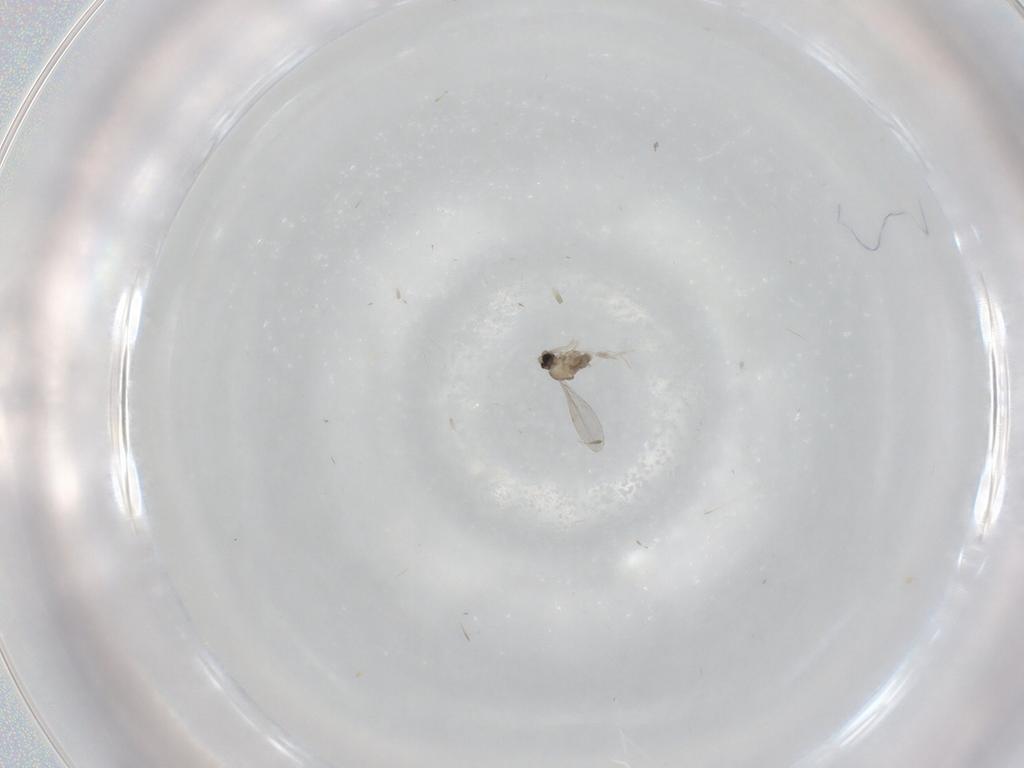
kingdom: Animalia
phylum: Arthropoda
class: Insecta
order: Diptera
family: Cecidomyiidae
